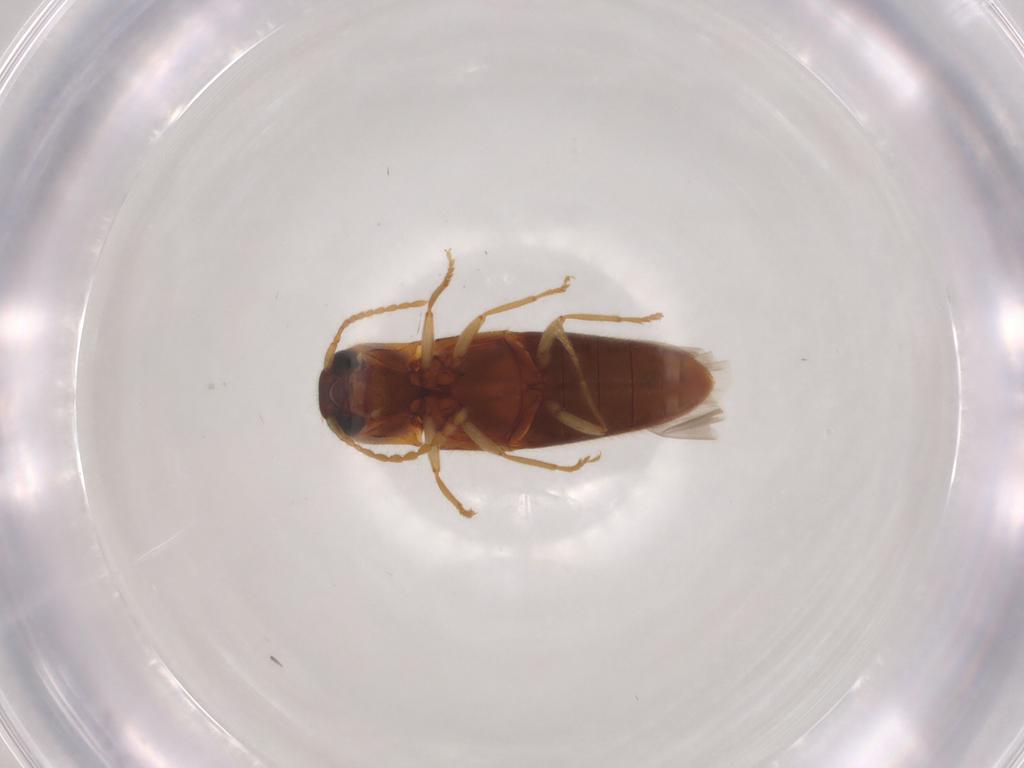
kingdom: Animalia
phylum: Arthropoda
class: Insecta
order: Coleoptera
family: Elateridae
